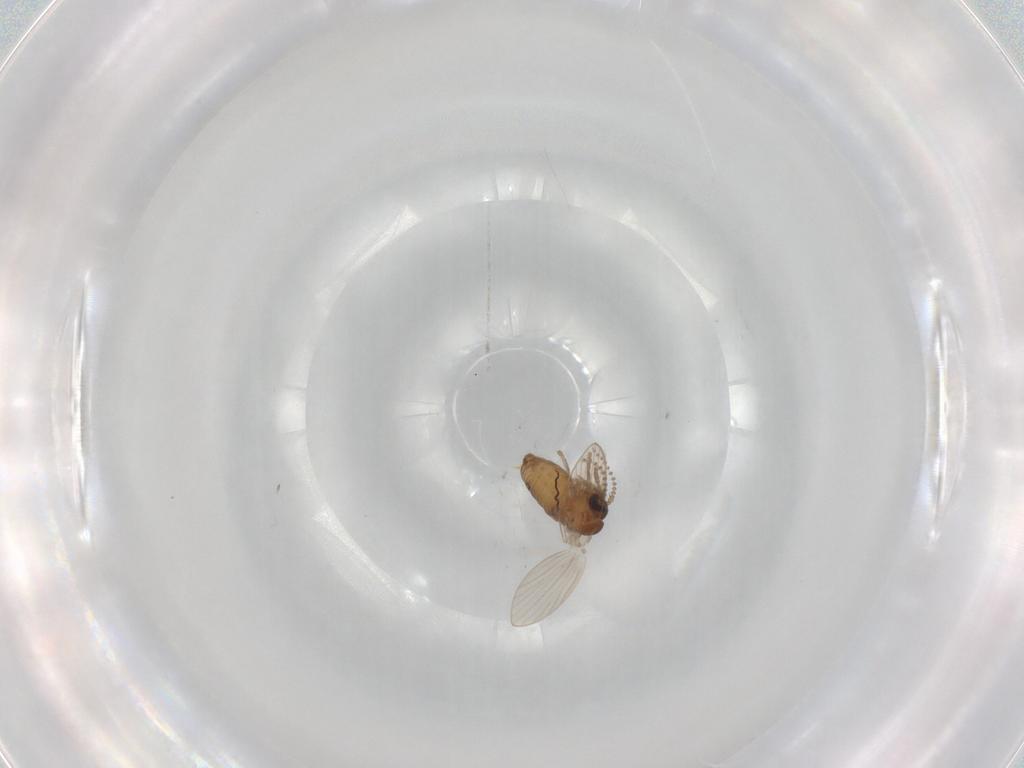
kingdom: Animalia
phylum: Arthropoda
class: Insecta
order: Diptera
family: Psychodidae
